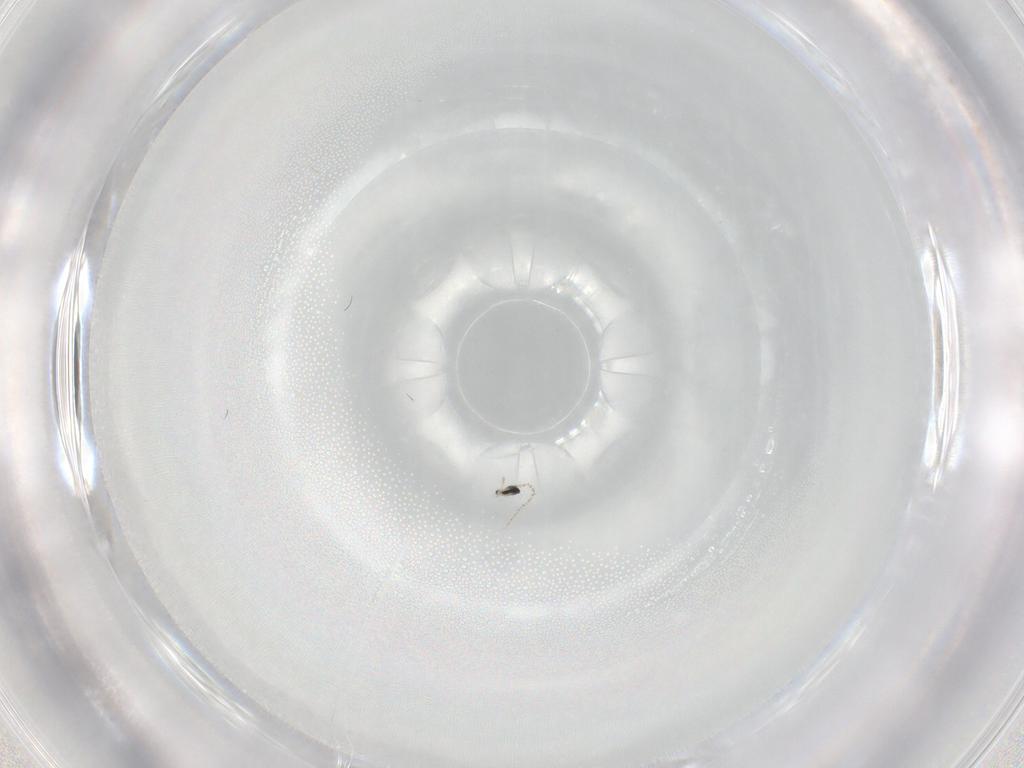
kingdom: Animalia
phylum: Arthropoda
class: Insecta
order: Diptera
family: Cecidomyiidae
